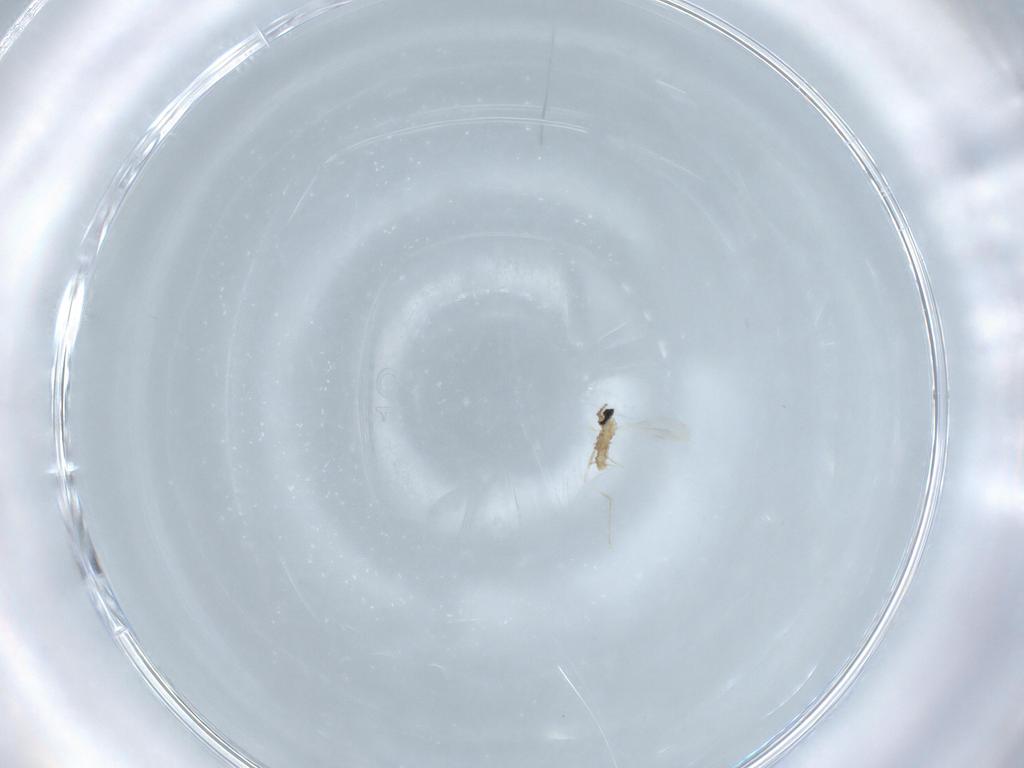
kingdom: Animalia
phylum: Arthropoda
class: Insecta
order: Diptera
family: Cecidomyiidae
